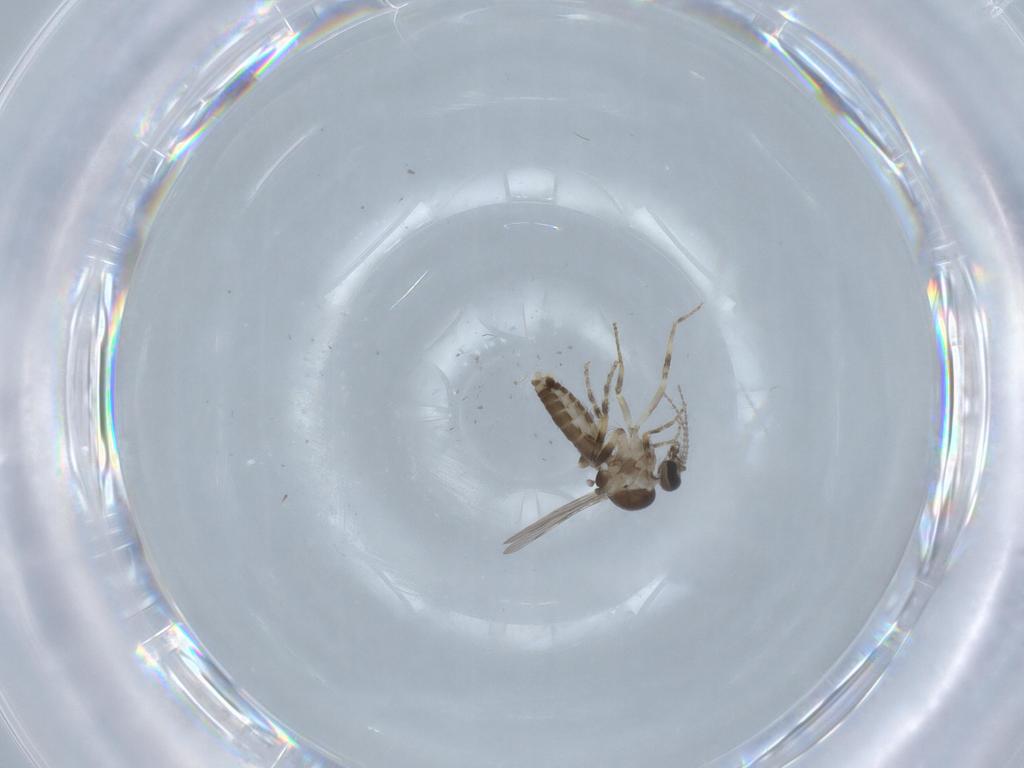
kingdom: Animalia
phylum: Arthropoda
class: Insecta
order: Diptera
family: Ceratopogonidae
